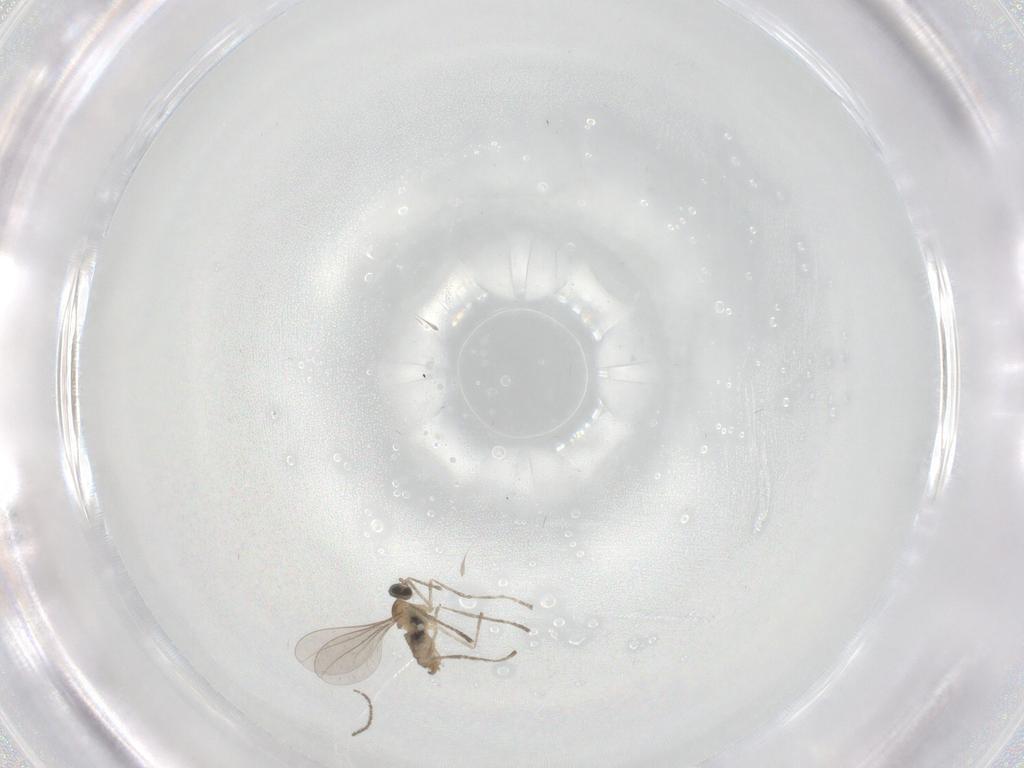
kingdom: Animalia
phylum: Arthropoda
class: Insecta
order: Diptera
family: Cecidomyiidae
